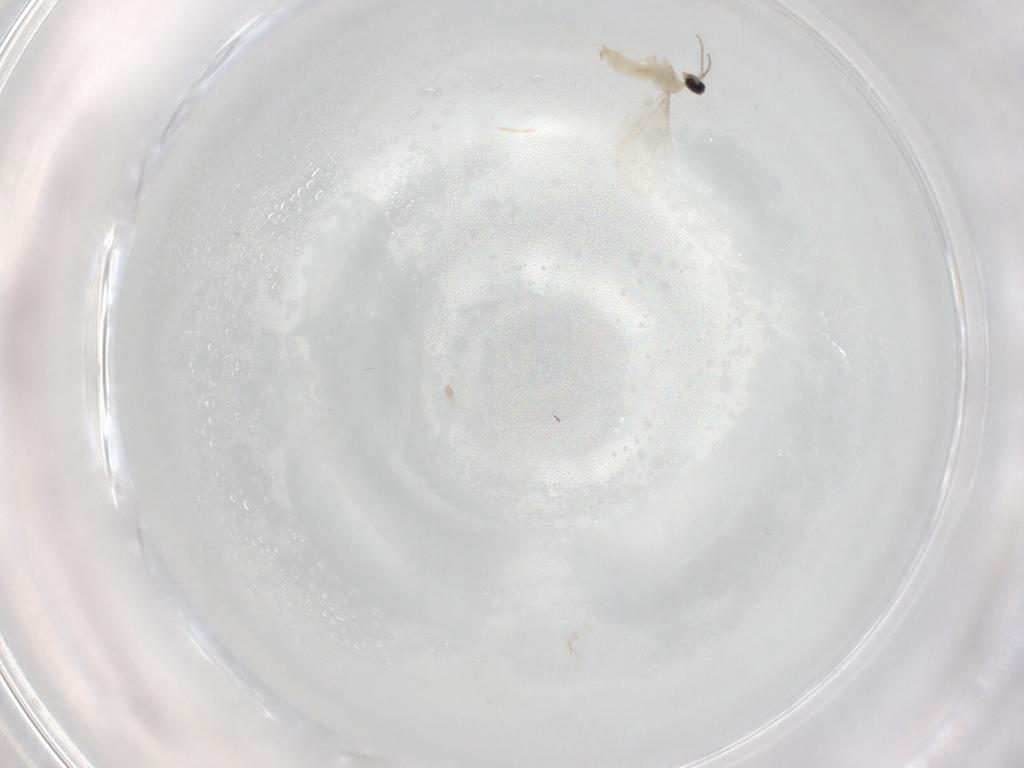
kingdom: Animalia
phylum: Arthropoda
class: Insecta
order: Diptera
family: Cecidomyiidae
